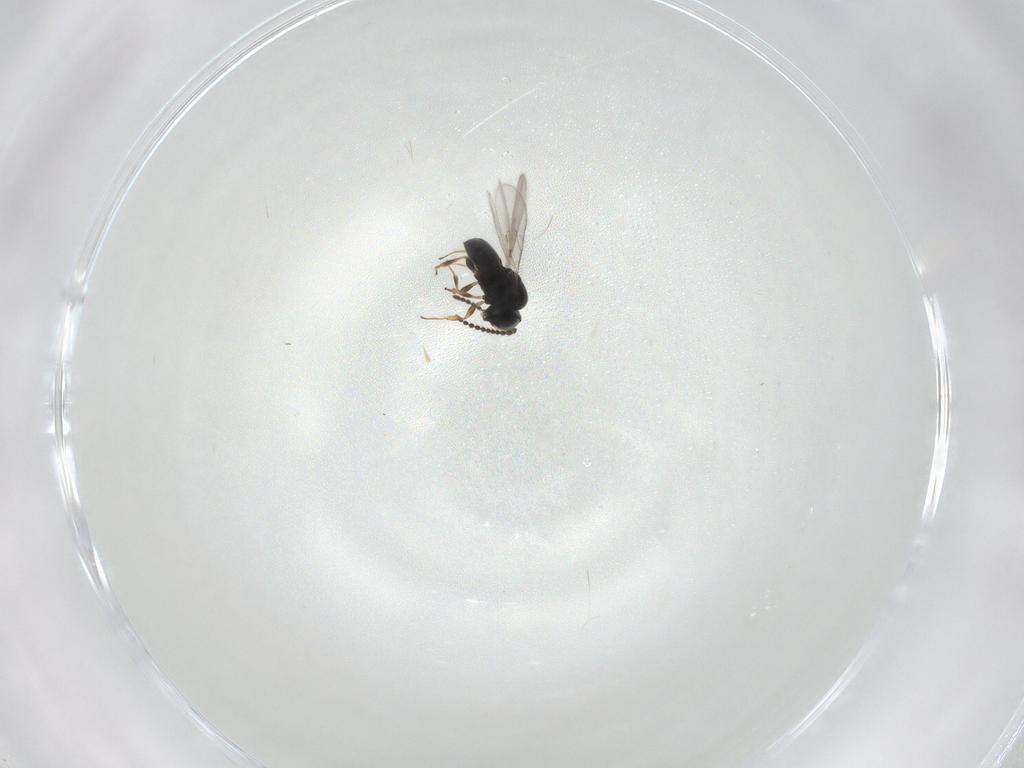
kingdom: Animalia
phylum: Arthropoda
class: Insecta
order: Hymenoptera
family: Scelionidae
